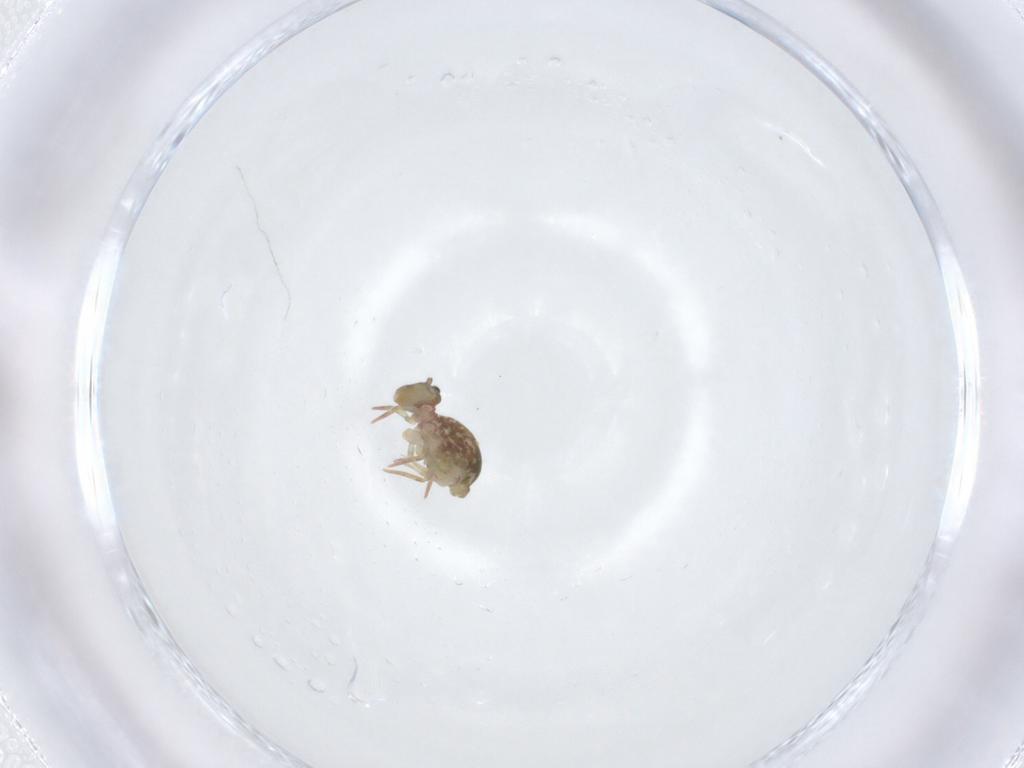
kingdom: Animalia
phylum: Arthropoda
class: Collembola
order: Symphypleona
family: Dicyrtomidae
